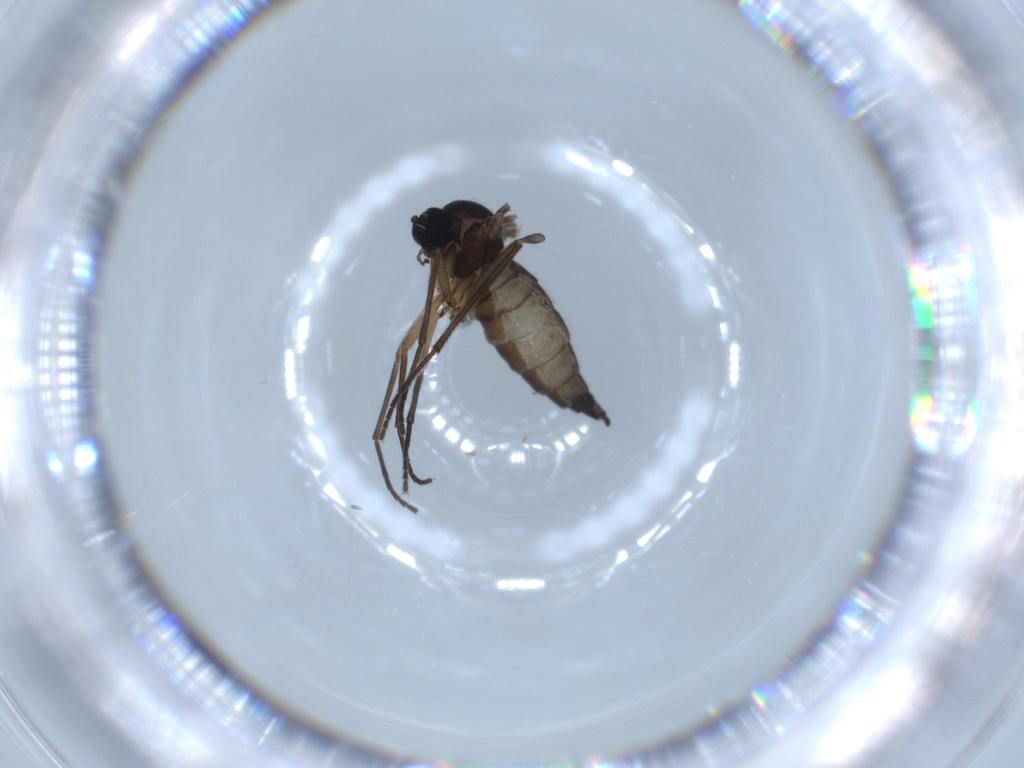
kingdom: Animalia
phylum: Arthropoda
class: Insecta
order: Diptera
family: Sciaridae
